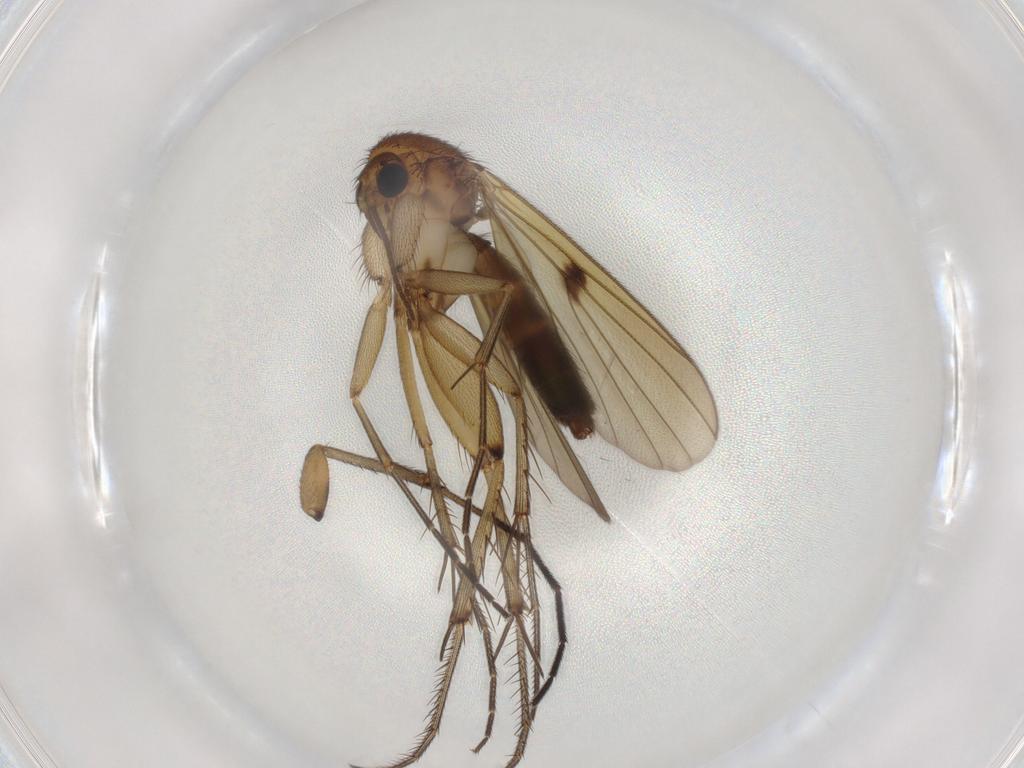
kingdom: Animalia
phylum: Arthropoda
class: Insecta
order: Diptera
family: Mycetophilidae
